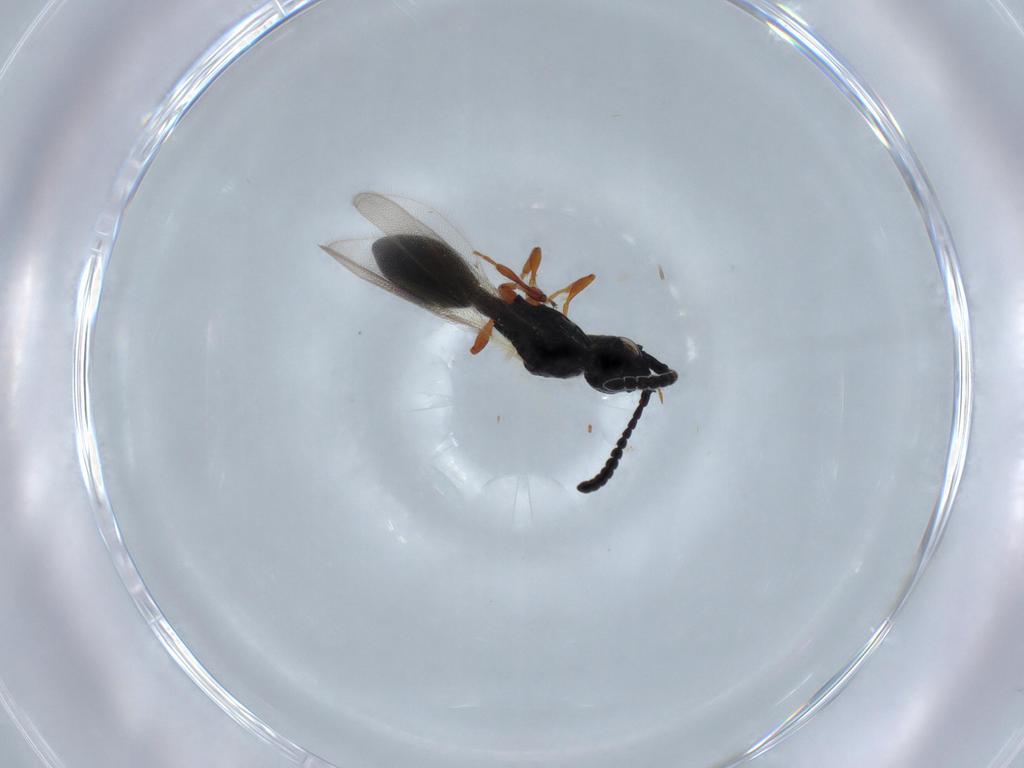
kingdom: Animalia
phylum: Arthropoda
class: Insecta
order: Hymenoptera
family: Diapriidae
